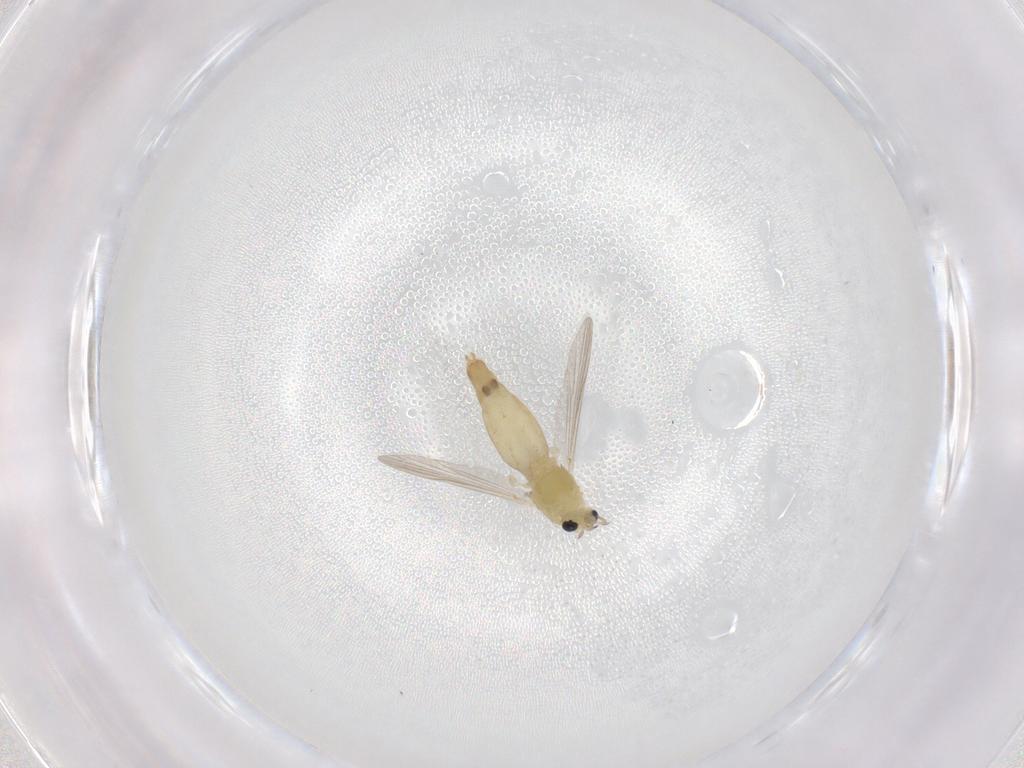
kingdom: Animalia
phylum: Arthropoda
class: Insecta
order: Diptera
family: Chironomidae
